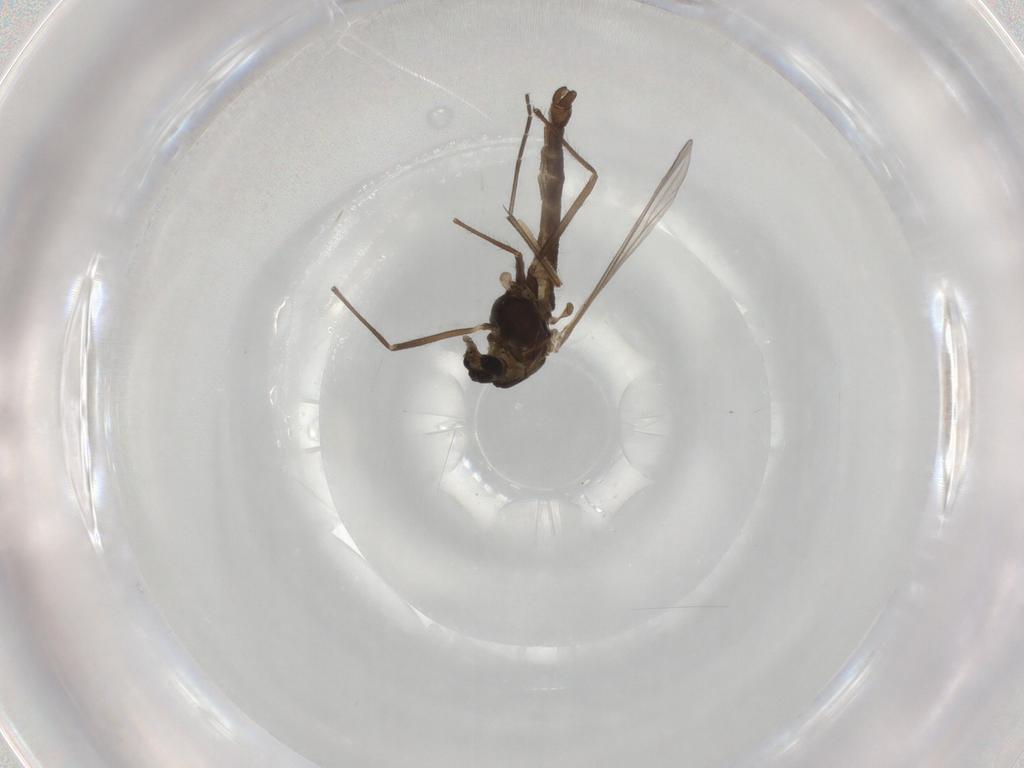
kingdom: Animalia
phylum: Arthropoda
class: Insecta
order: Diptera
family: Chironomidae
